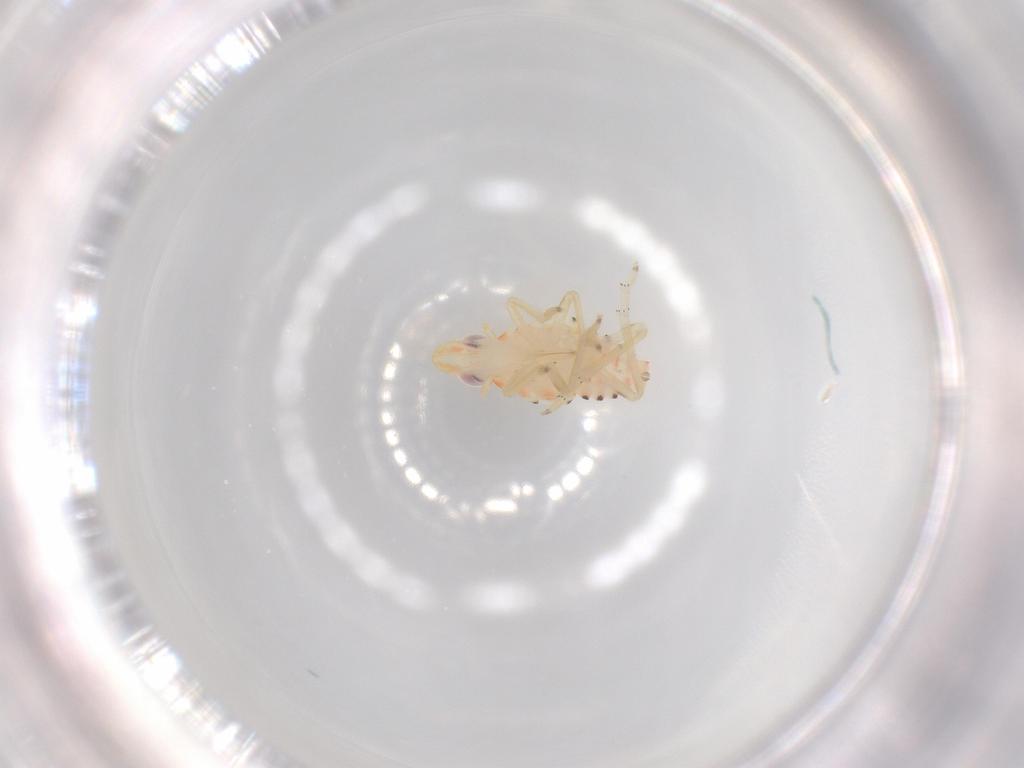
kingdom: Animalia
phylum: Arthropoda
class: Insecta
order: Hemiptera
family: Tropiduchidae
